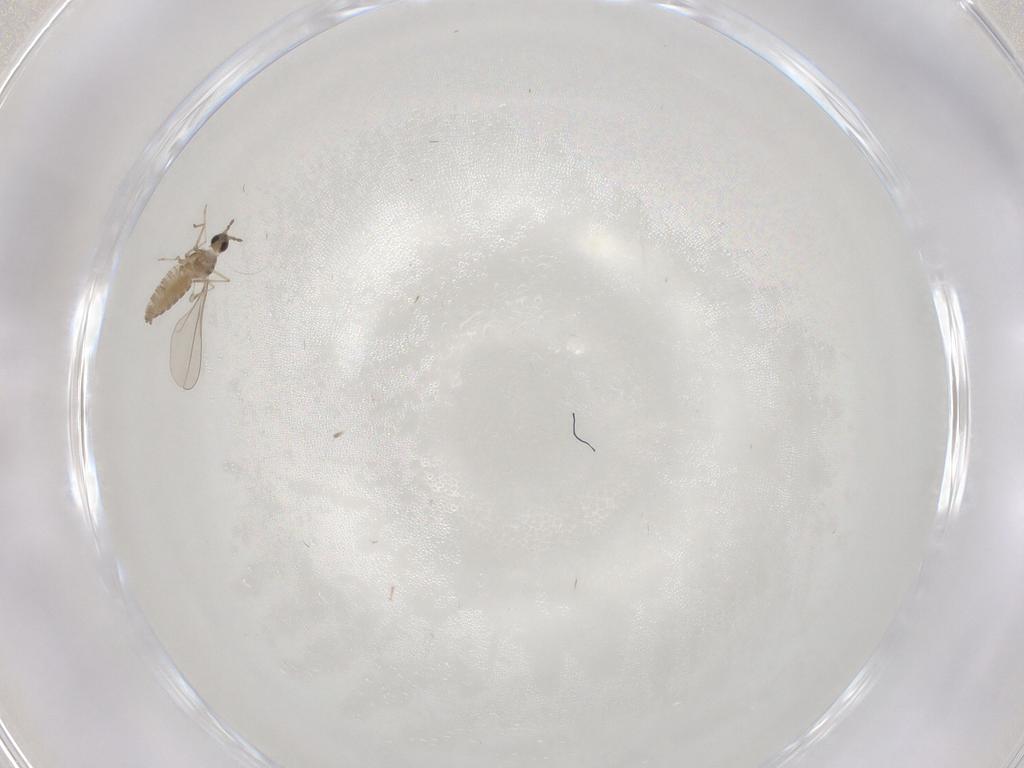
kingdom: Animalia
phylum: Arthropoda
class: Insecta
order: Diptera
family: Cecidomyiidae
